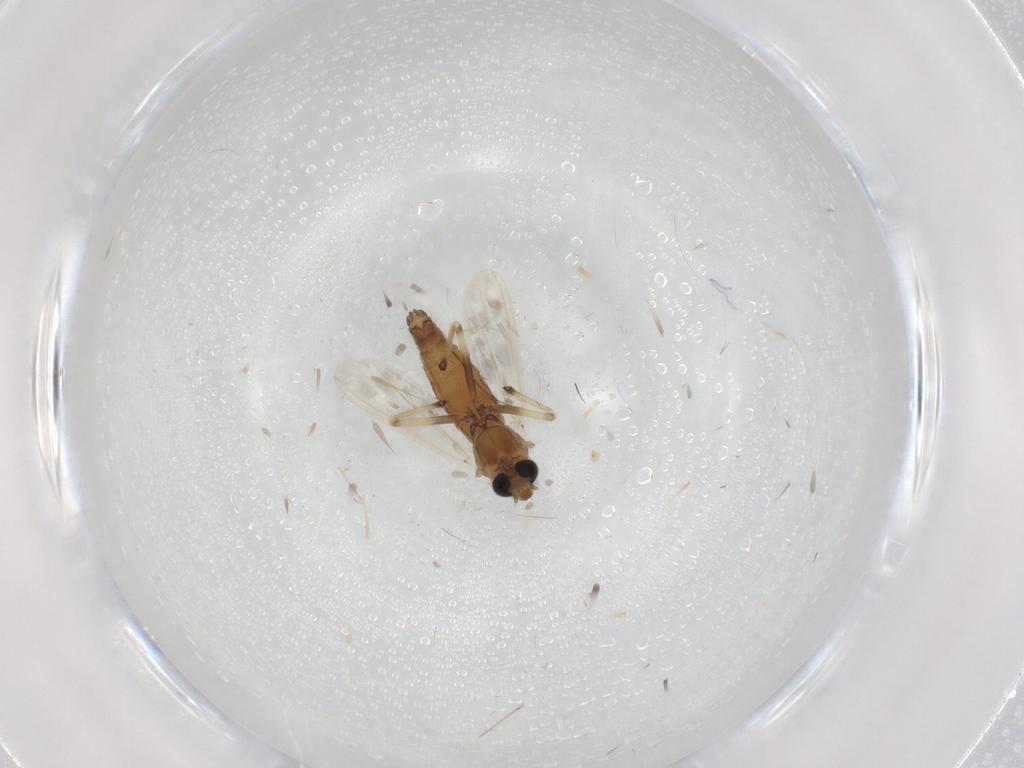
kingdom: Animalia
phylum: Arthropoda
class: Insecta
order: Diptera
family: Chironomidae
